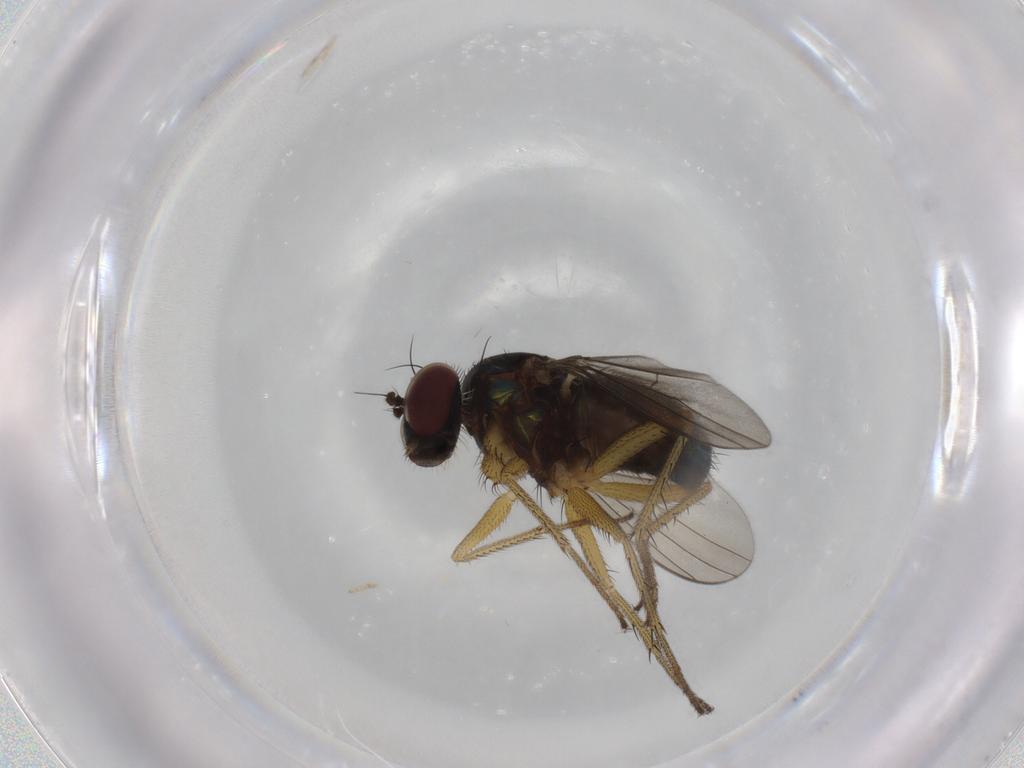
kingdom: Animalia
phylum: Arthropoda
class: Insecta
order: Diptera
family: Dolichopodidae
